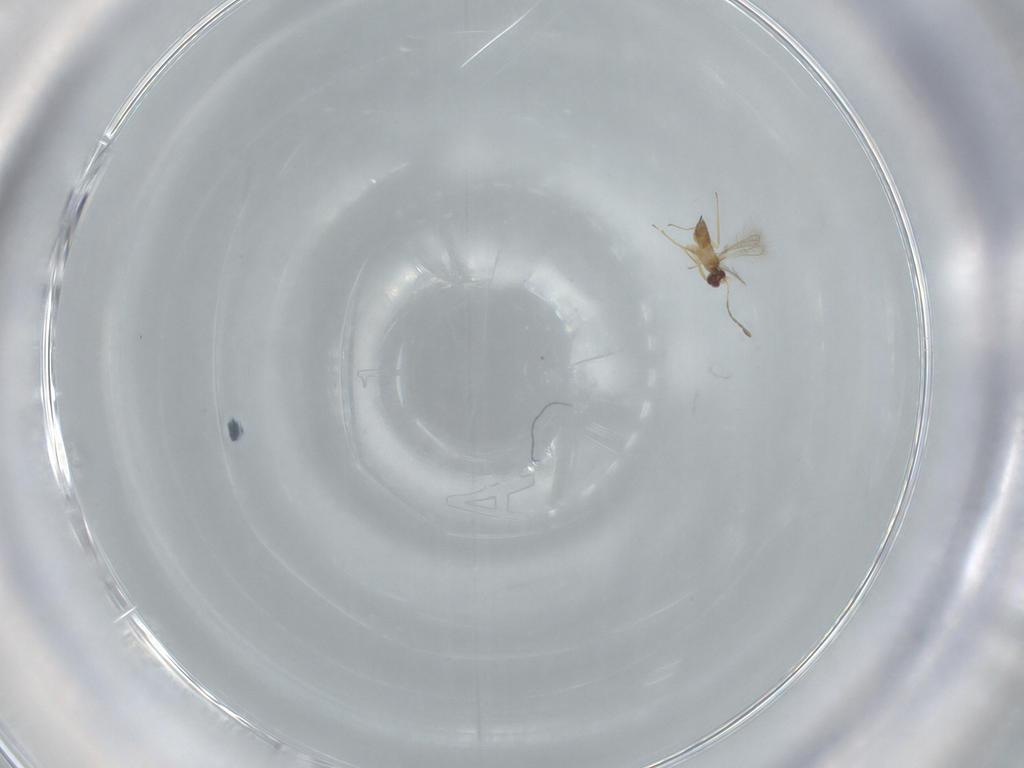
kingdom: Animalia
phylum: Arthropoda
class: Insecta
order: Hymenoptera
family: Mymaridae
